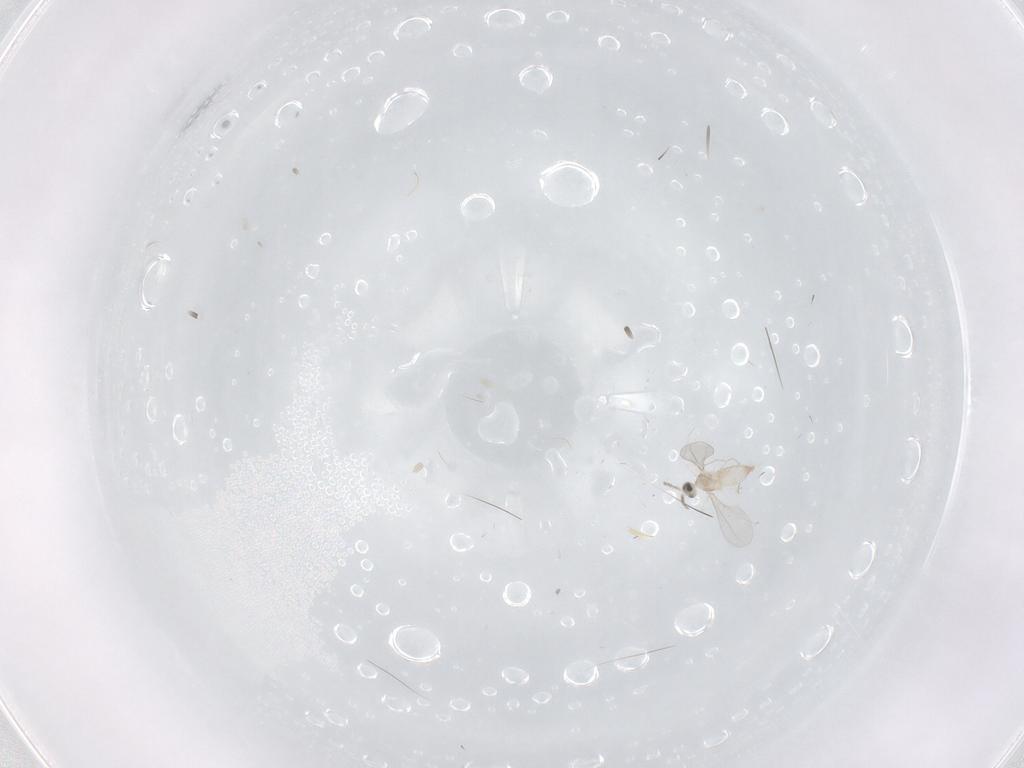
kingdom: Animalia
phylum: Arthropoda
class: Insecta
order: Diptera
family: Cecidomyiidae
